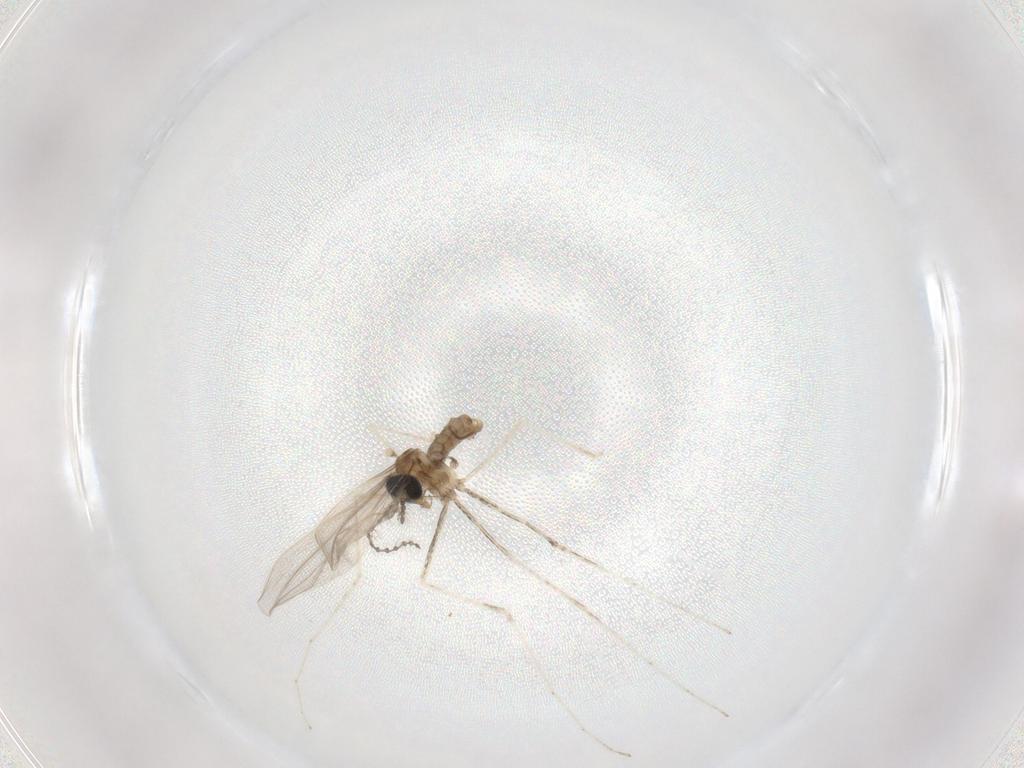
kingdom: Animalia
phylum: Arthropoda
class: Insecta
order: Diptera
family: Cecidomyiidae
